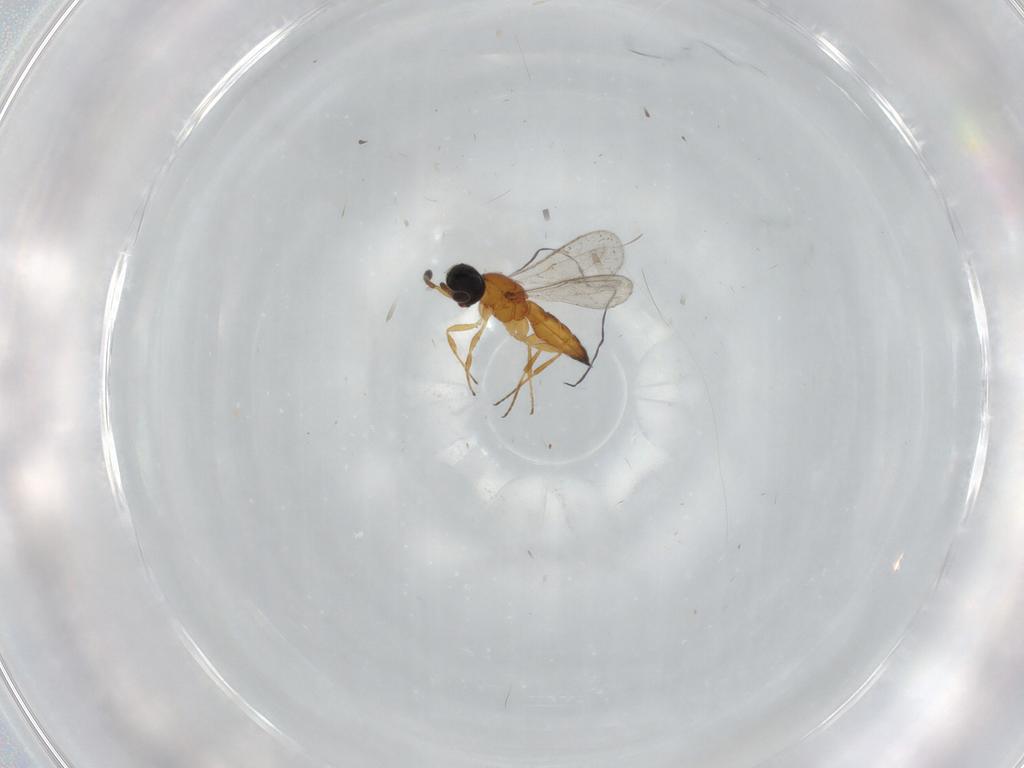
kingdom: Animalia
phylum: Arthropoda
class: Insecta
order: Hymenoptera
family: Scelionidae
